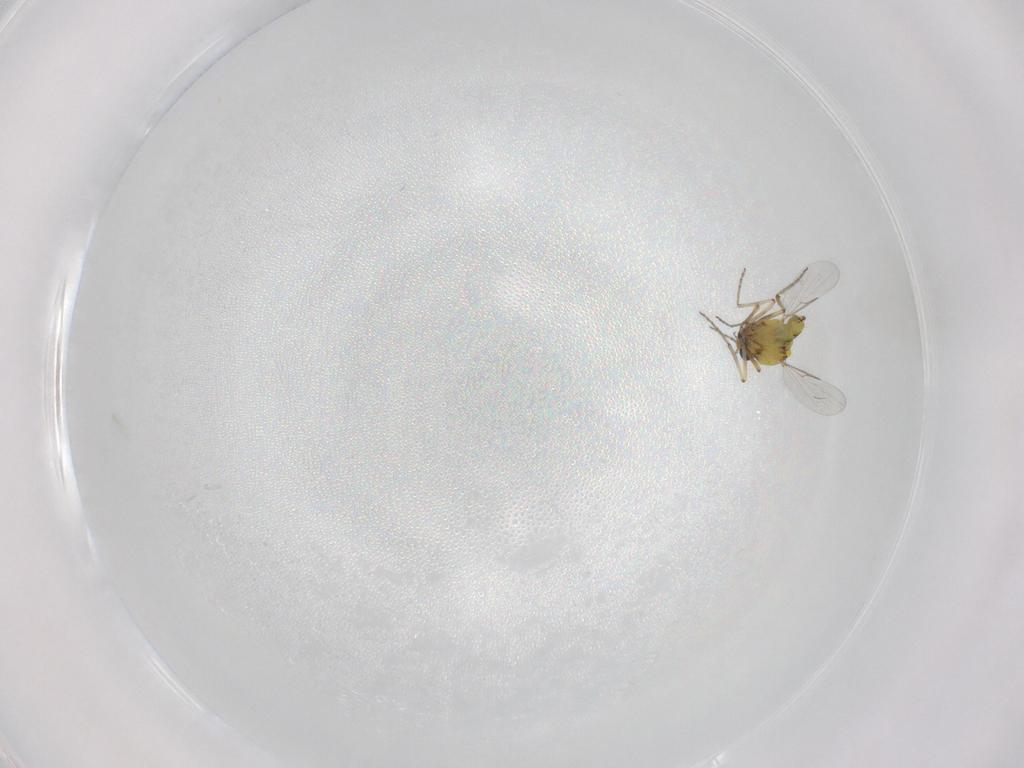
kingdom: Animalia
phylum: Arthropoda
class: Insecta
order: Diptera
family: Ceratopogonidae
